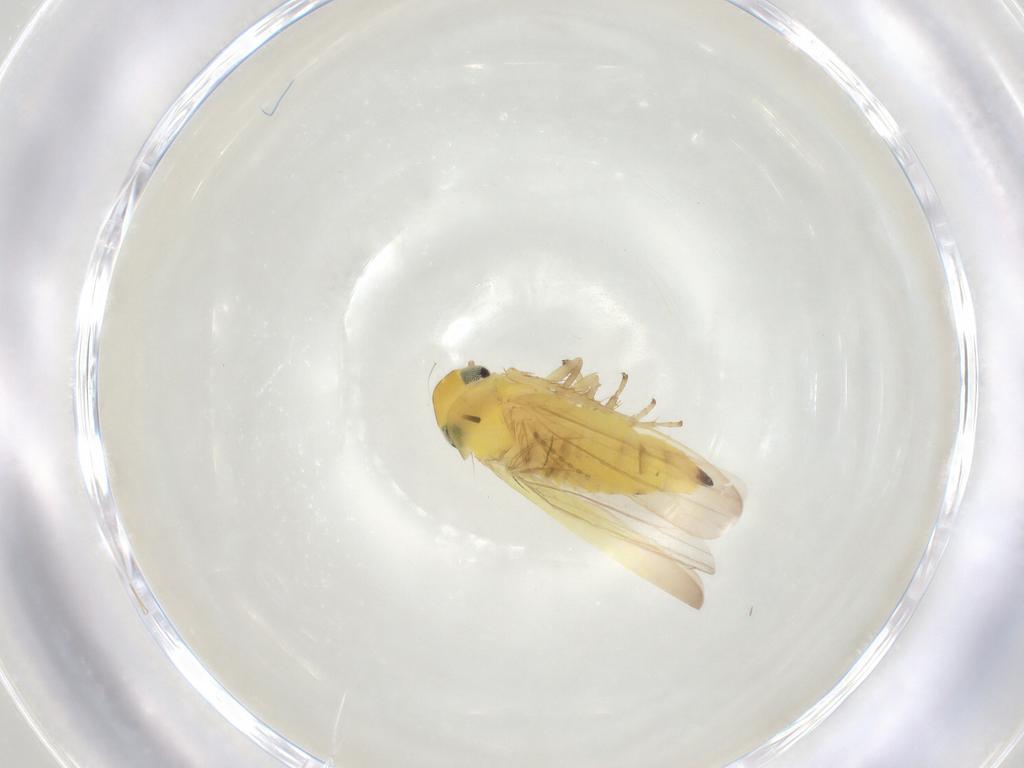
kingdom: Animalia
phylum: Arthropoda
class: Insecta
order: Hemiptera
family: Cicadellidae
